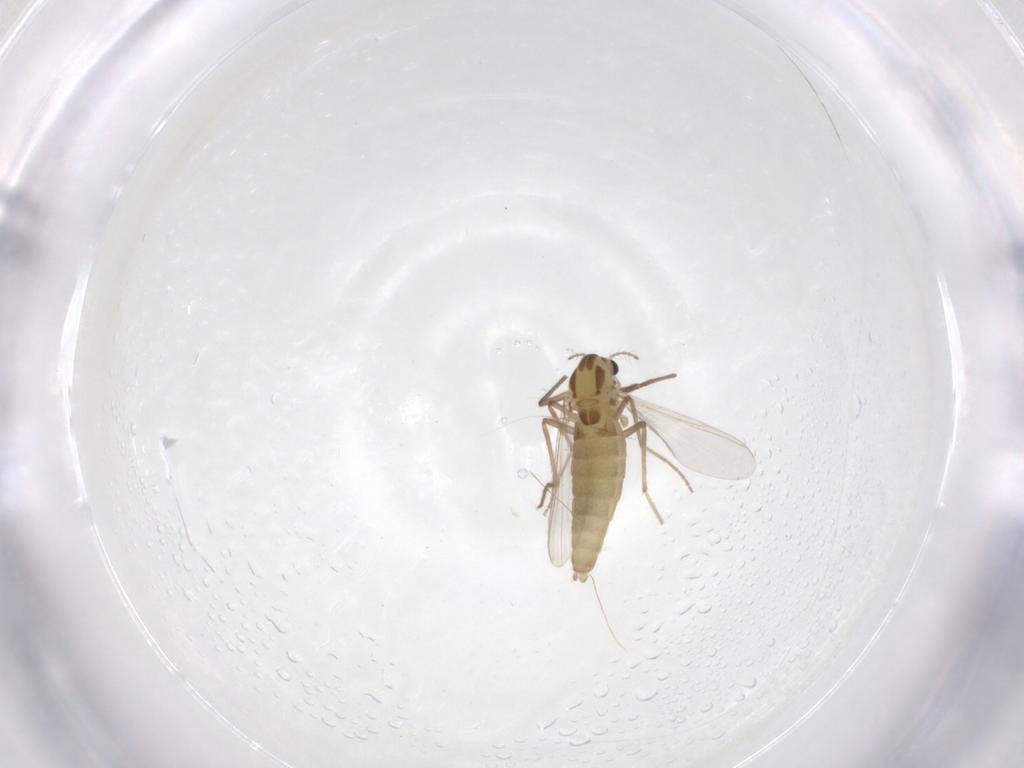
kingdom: Animalia
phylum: Arthropoda
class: Insecta
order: Diptera
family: Chironomidae
